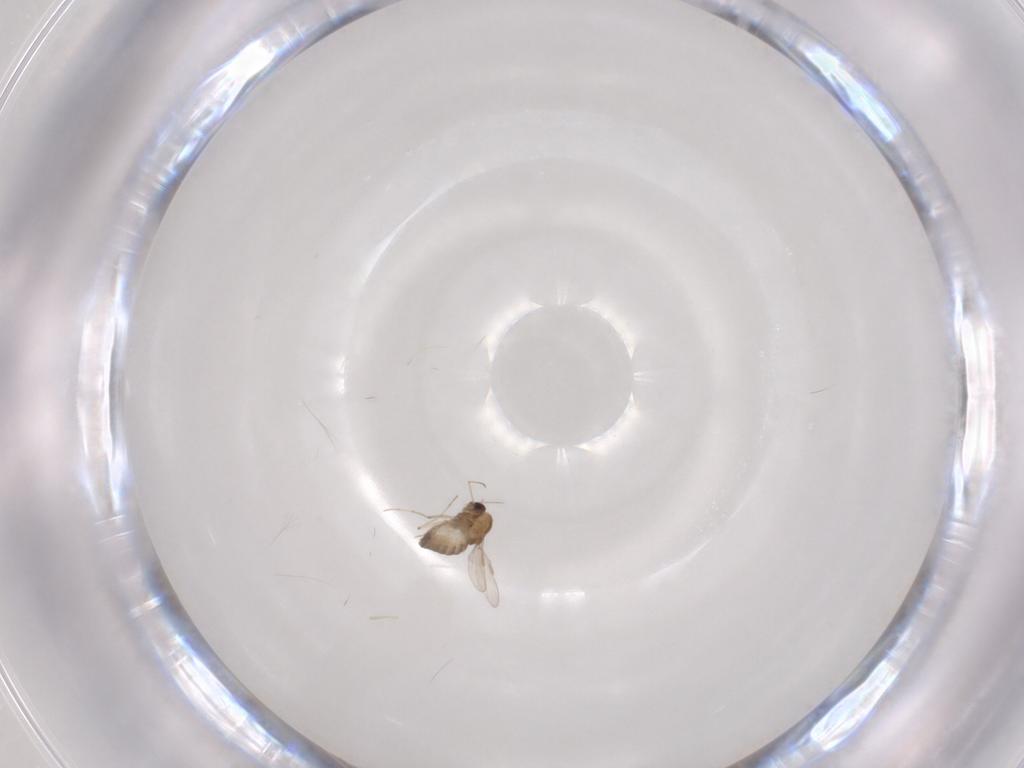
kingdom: Animalia
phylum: Arthropoda
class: Insecta
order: Diptera
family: Chironomidae
